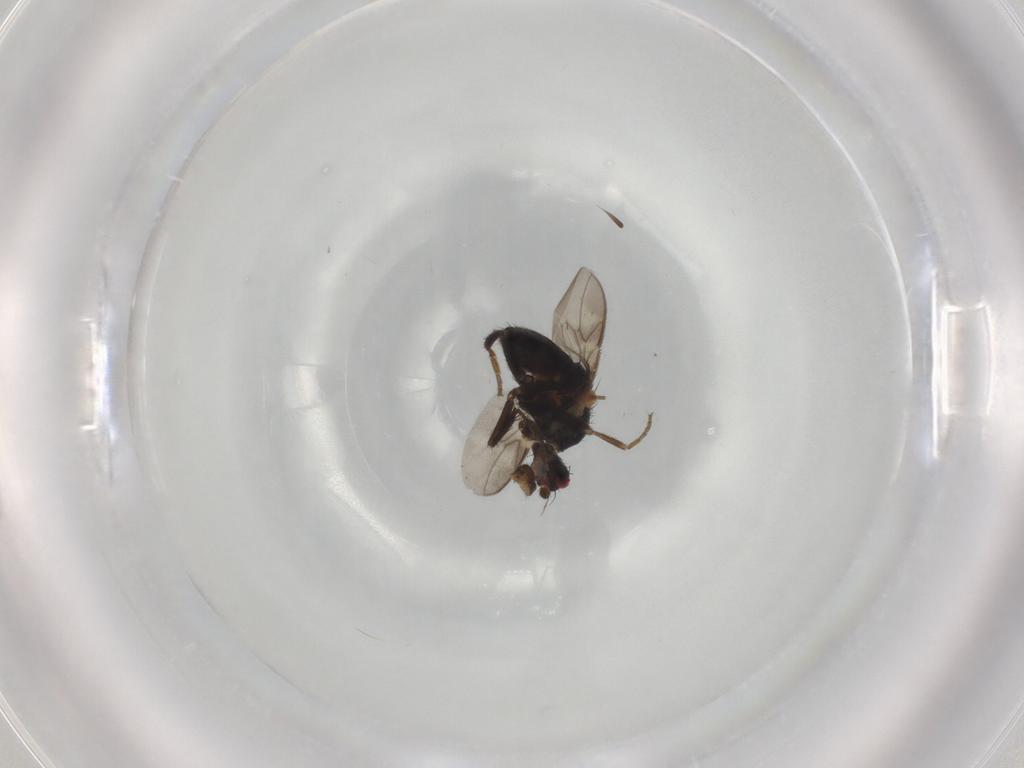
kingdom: Animalia
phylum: Arthropoda
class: Insecta
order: Diptera
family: Sphaeroceridae
